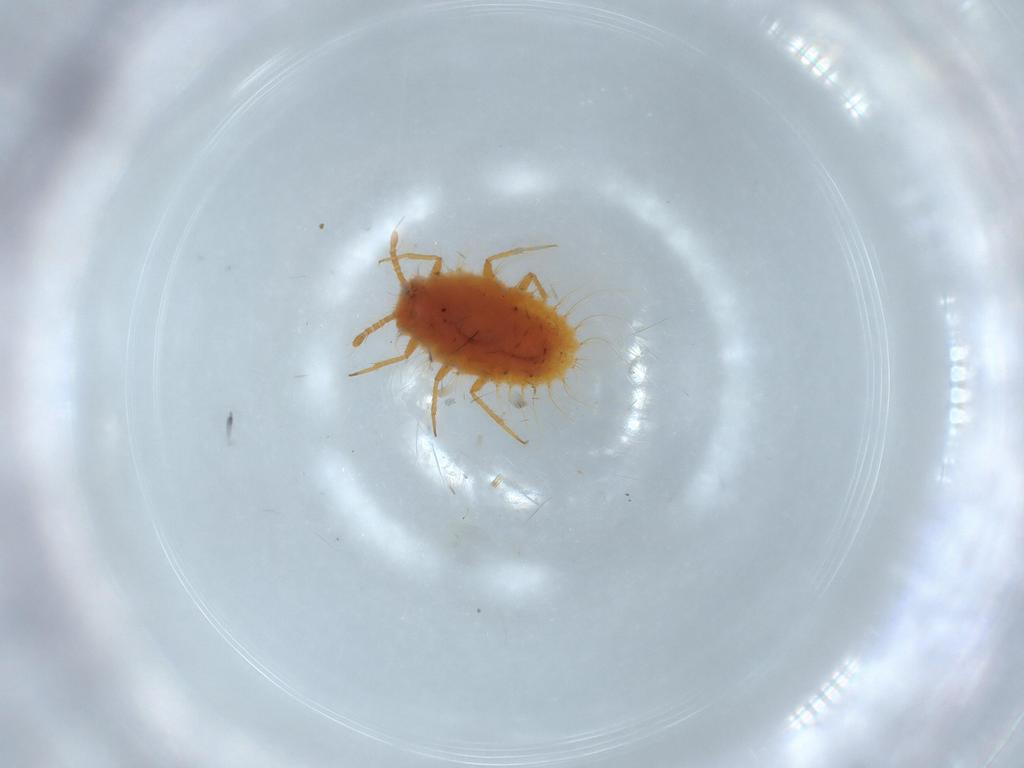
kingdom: Animalia
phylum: Arthropoda
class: Insecta
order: Hemiptera
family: Coccoidea_incertae_sedis
